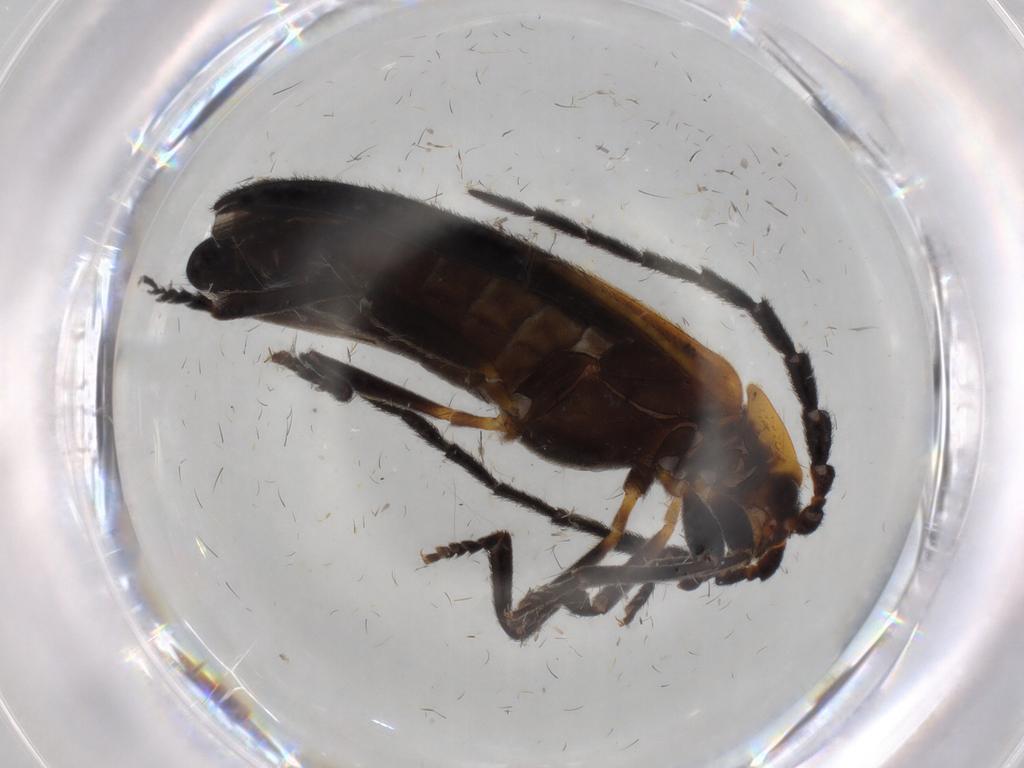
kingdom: Animalia
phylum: Arthropoda
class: Insecta
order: Coleoptera
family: Lycidae
